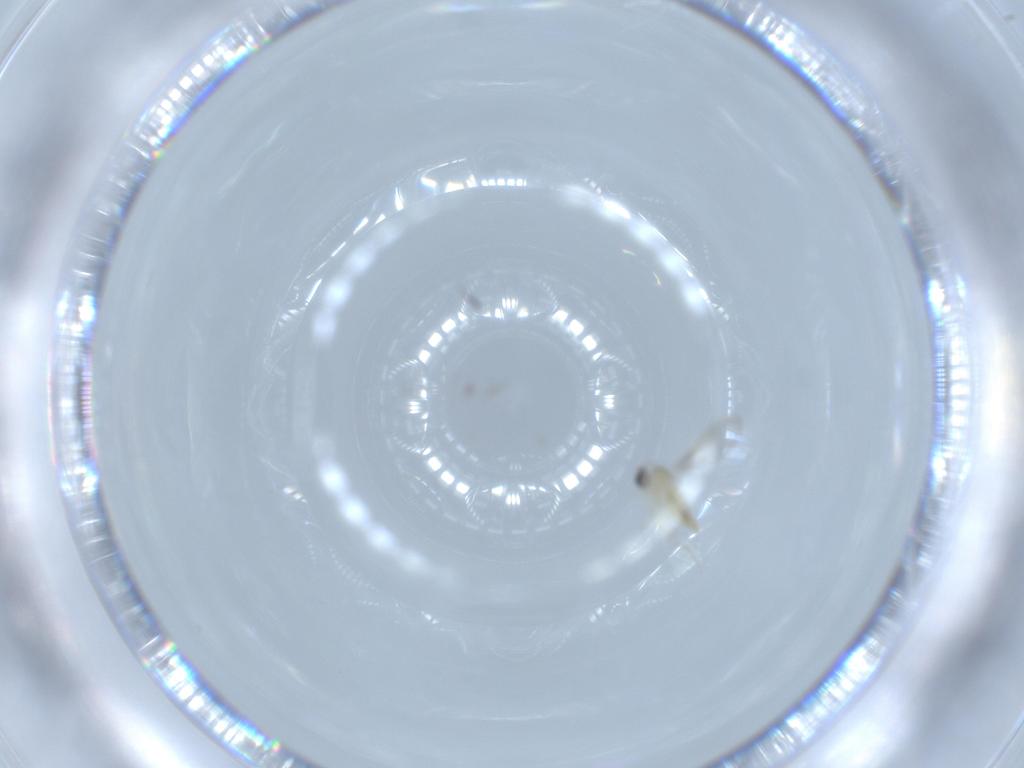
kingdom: Animalia
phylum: Arthropoda
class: Insecta
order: Diptera
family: Cecidomyiidae
